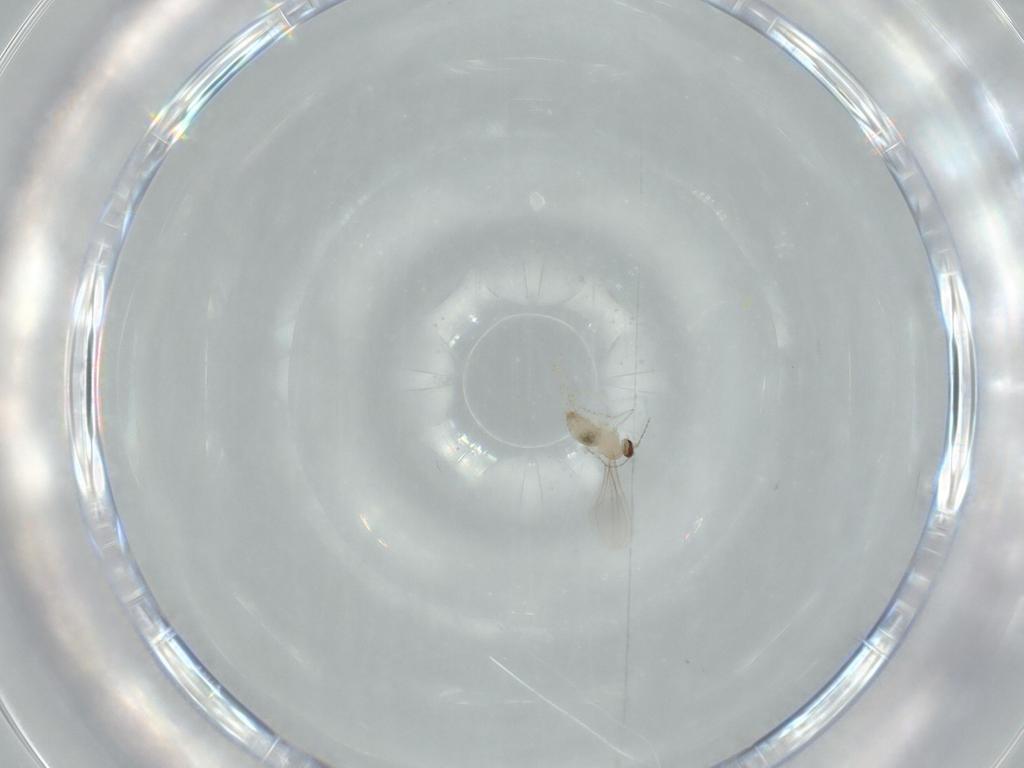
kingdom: Animalia
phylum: Arthropoda
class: Insecta
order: Diptera
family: Cecidomyiidae
